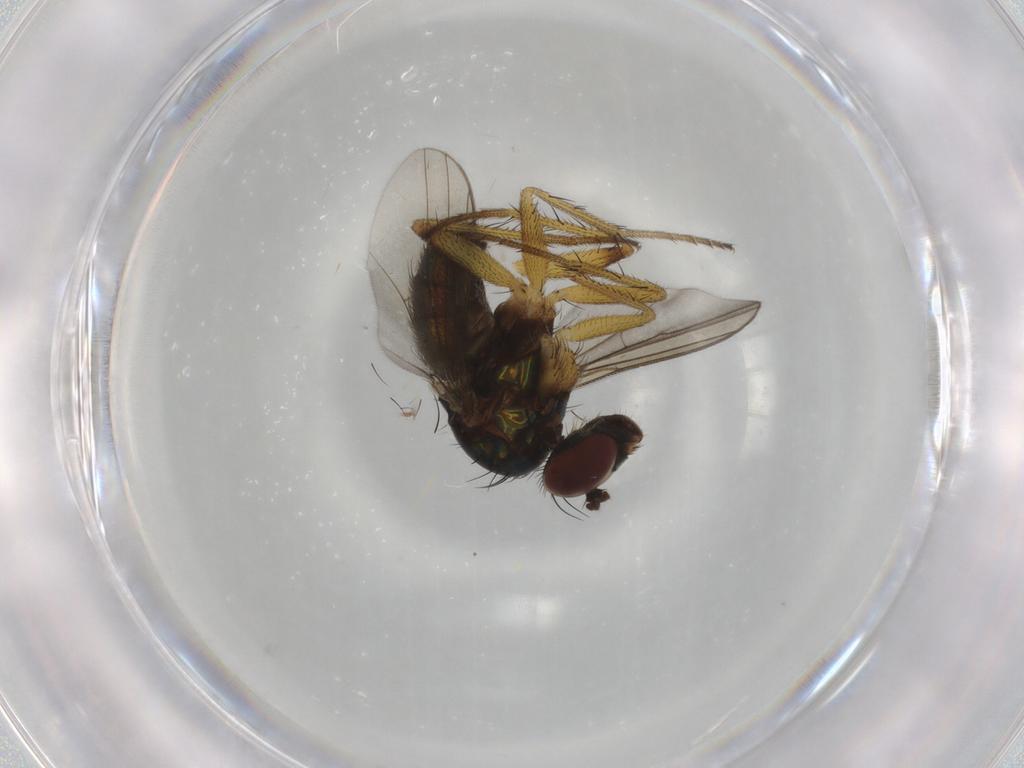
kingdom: Animalia
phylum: Arthropoda
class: Insecta
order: Diptera
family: Dolichopodidae
